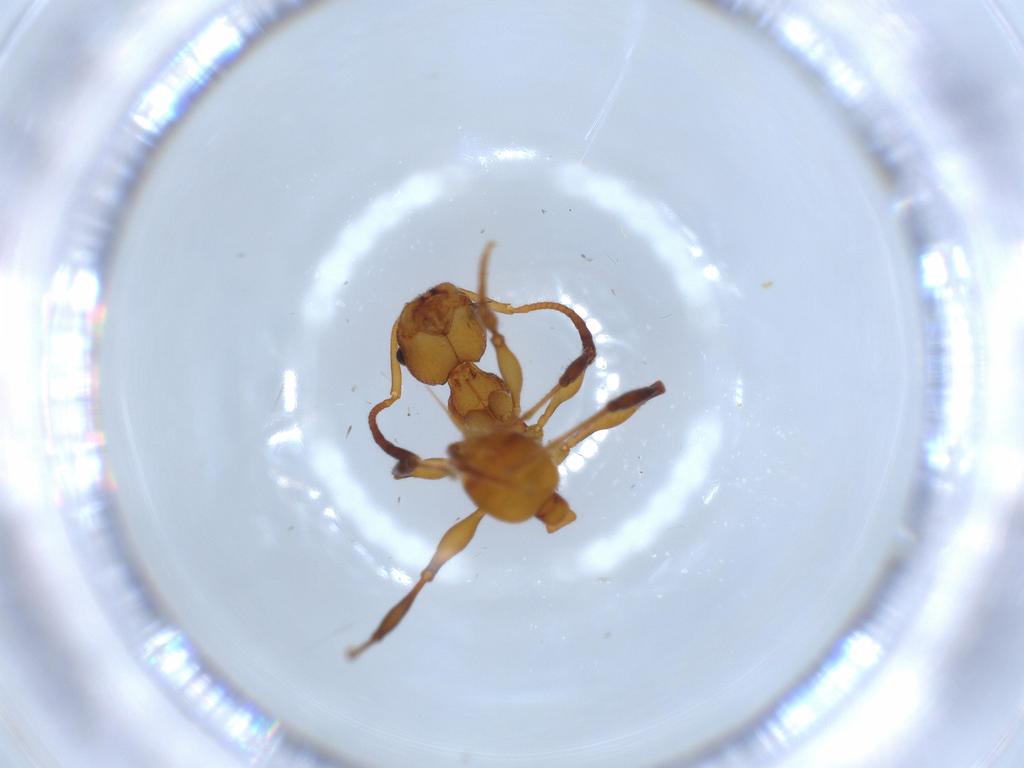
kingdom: Animalia
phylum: Arthropoda
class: Insecta
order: Hymenoptera
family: Formicidae
